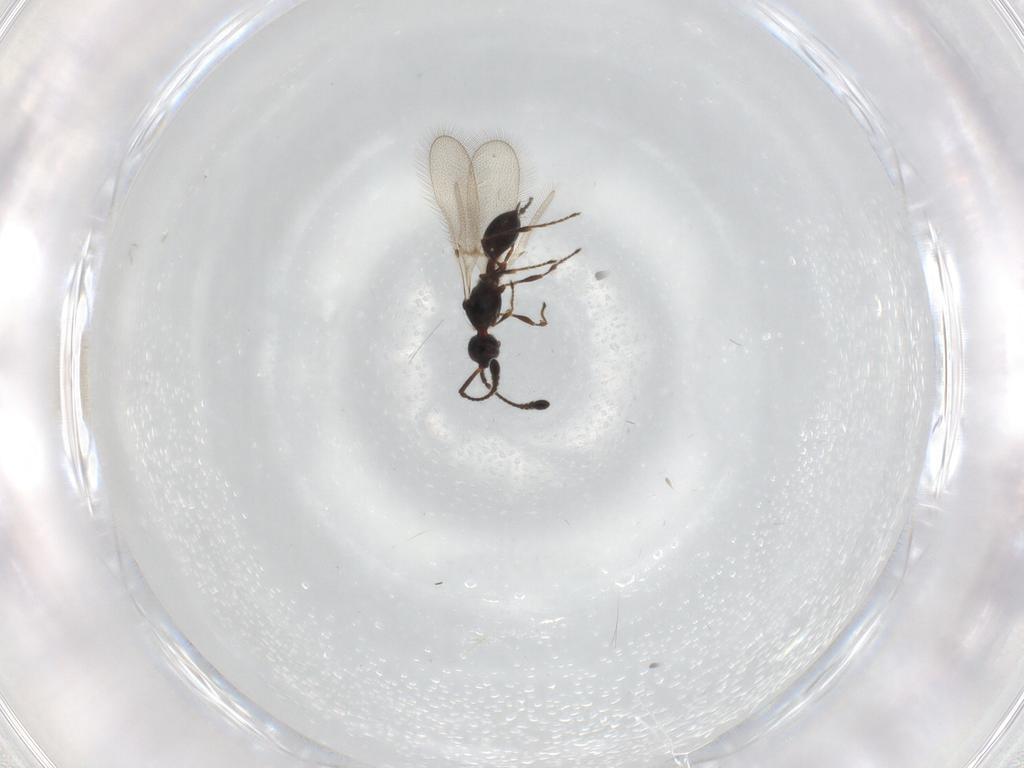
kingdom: Animalia
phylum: Arthropoda
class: Insecta
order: Hymenoptera
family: Diapriidae
